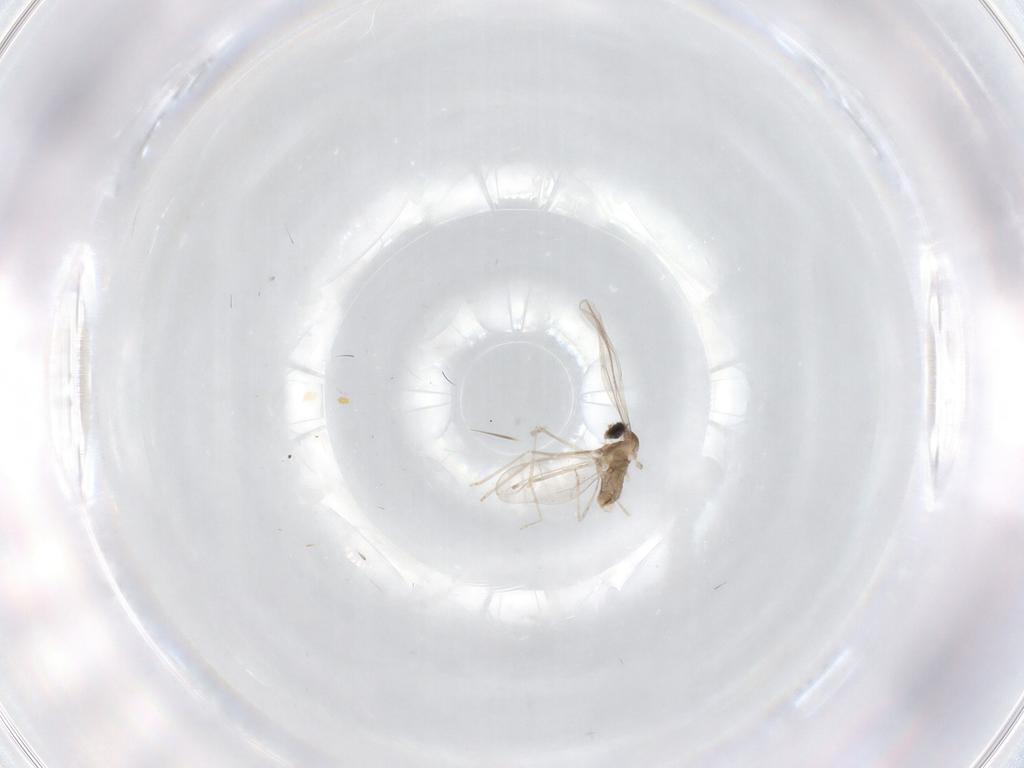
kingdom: Animalia
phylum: Arthropoda
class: Insecta
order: Diptera
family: Cecidomyiidae
